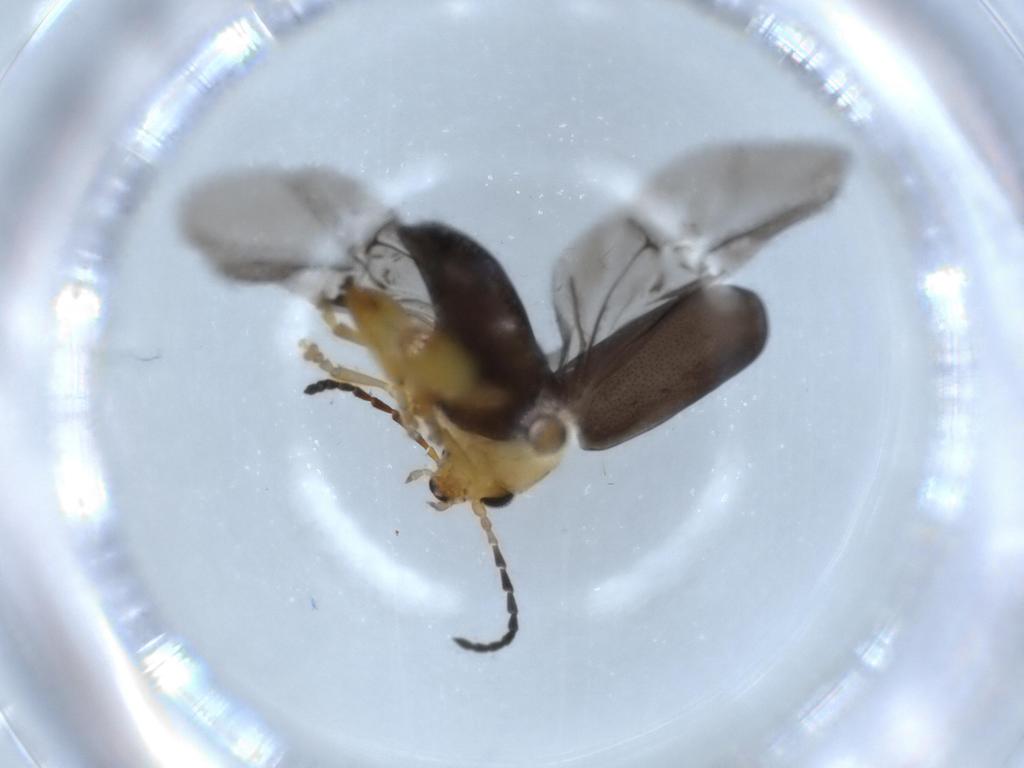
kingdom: Animalia
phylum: Arthropoda
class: Insecta
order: Coleoptera
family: Chrysomelidae
